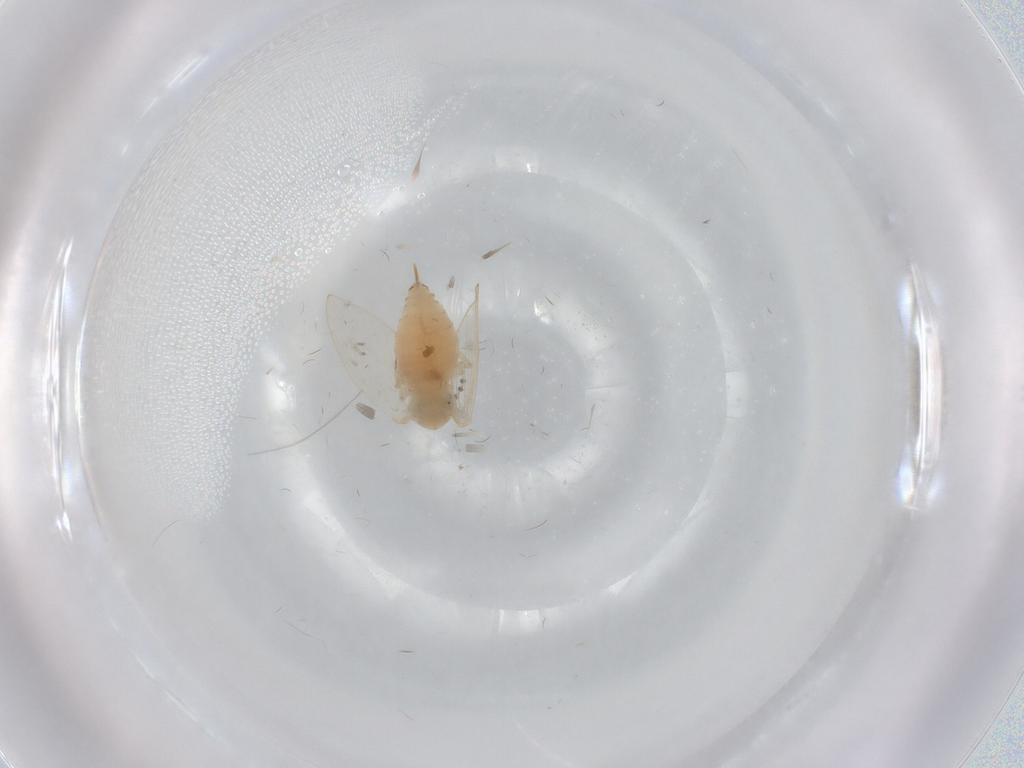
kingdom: Animalia
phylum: Arthropoda
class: Insecta
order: Diptera
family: Culicidae
